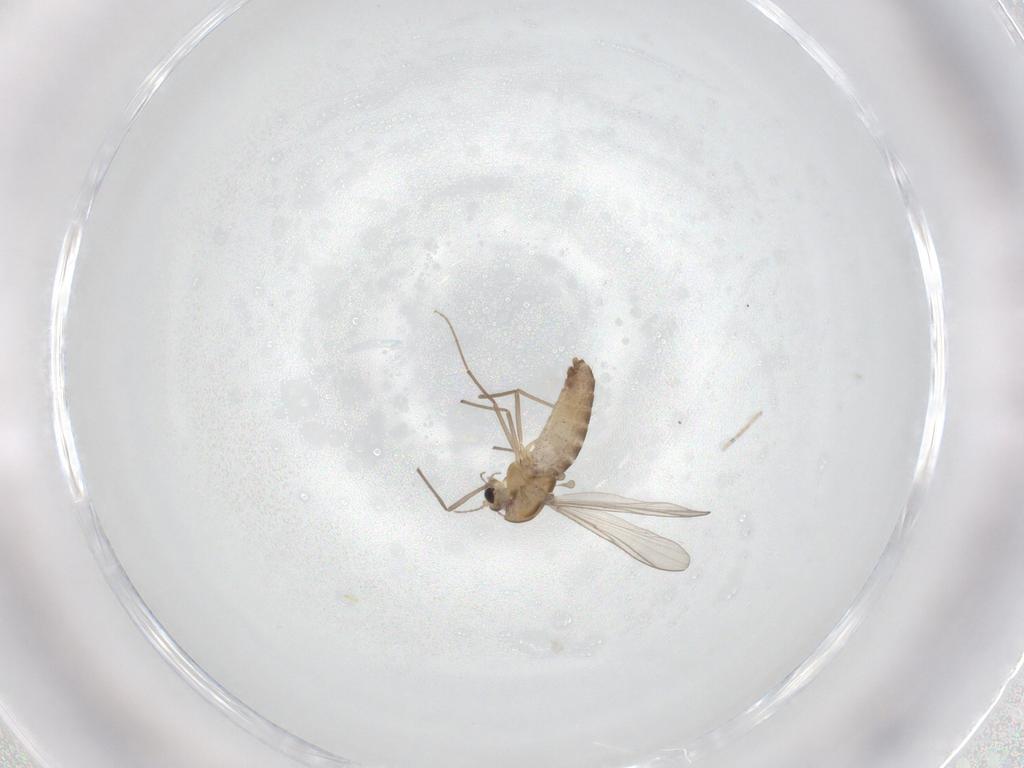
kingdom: Animalia
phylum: Arthropoda
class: Insecta
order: Diptera
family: Chironomidae
